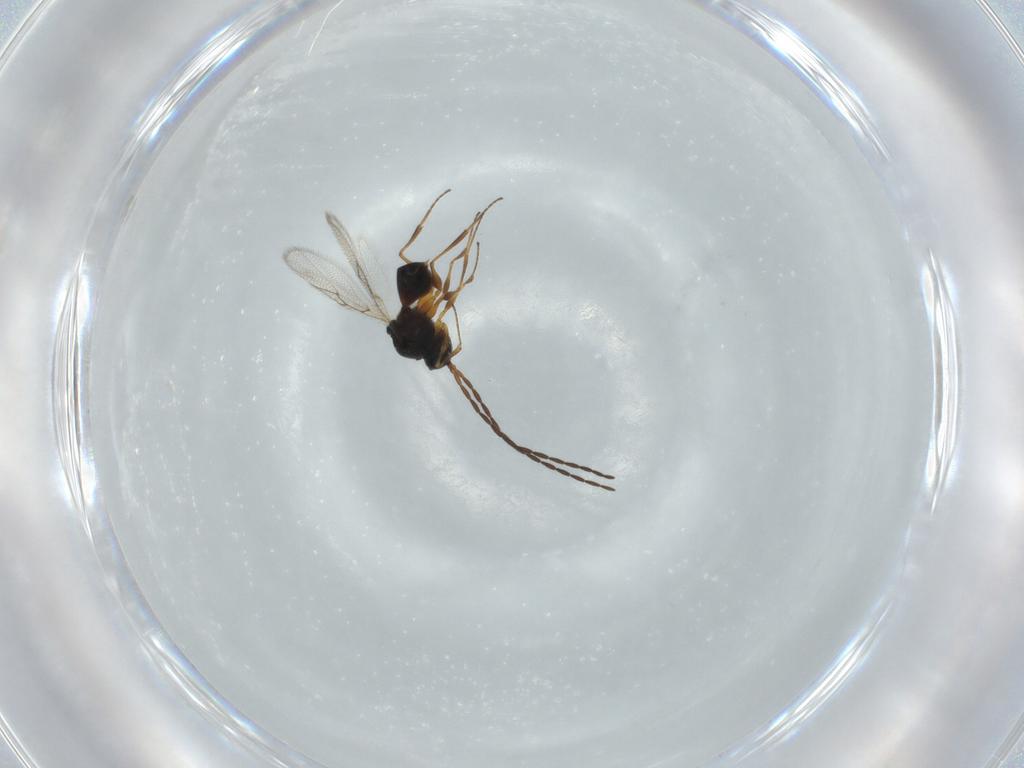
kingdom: Animalia
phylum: Arthropoda
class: Insecta
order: Hymenoptera
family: Figitidae
